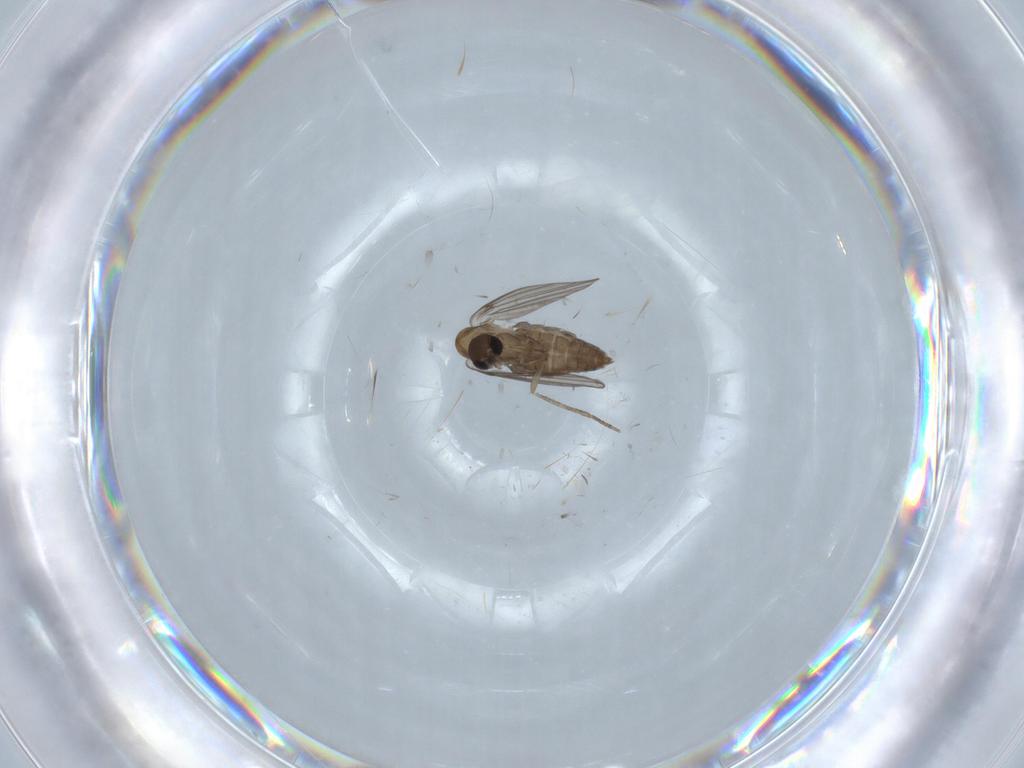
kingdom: Animalia
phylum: Arthropoda
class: Insecta
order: Diptera
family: Psychodidae
